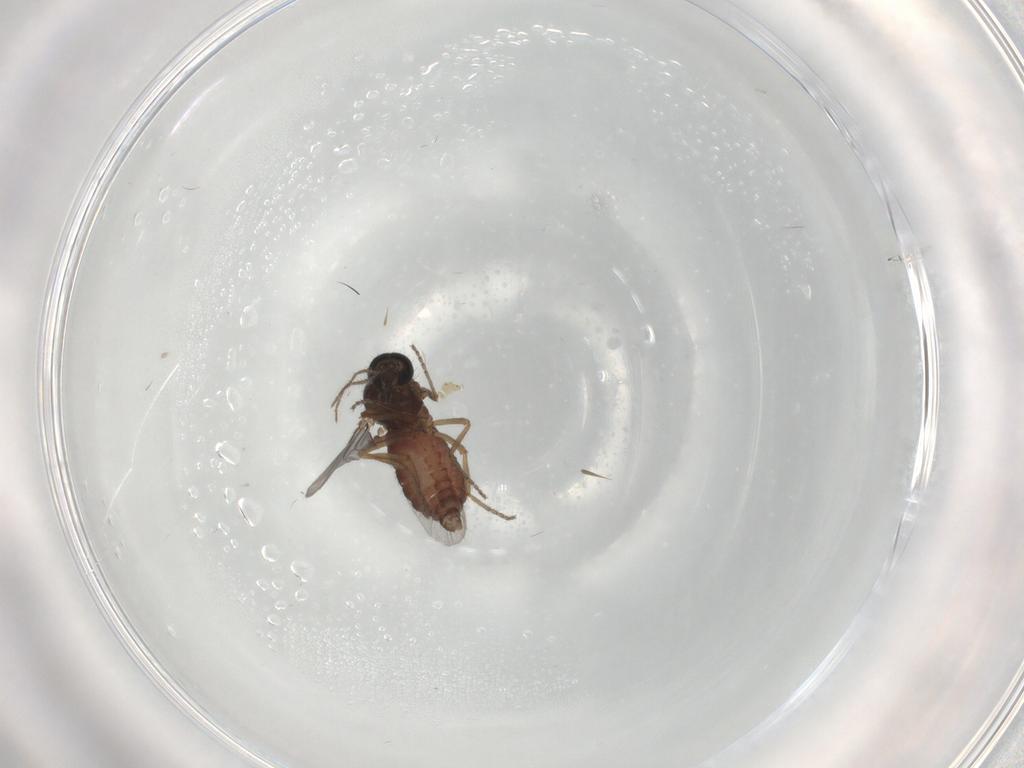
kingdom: Animalia
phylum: Arthropoda
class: Insecta
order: Diptera
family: Ceratopogonidae
